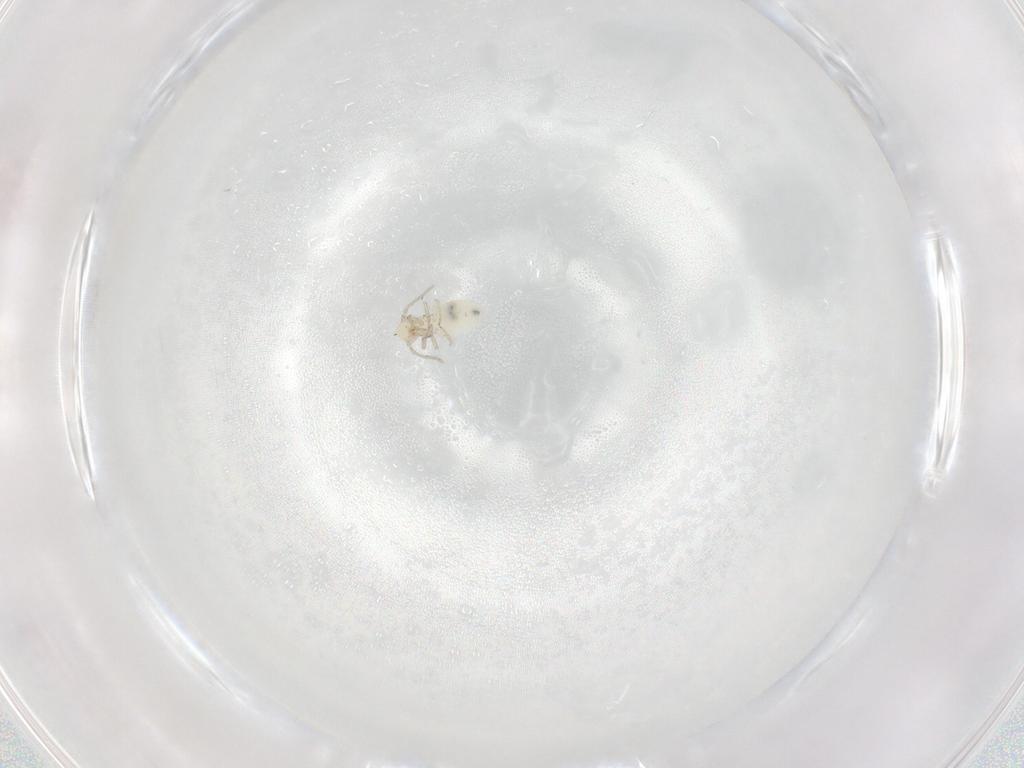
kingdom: Animalia
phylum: Arthropoda
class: Insecta
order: Psocodea
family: Caeciliusidae
